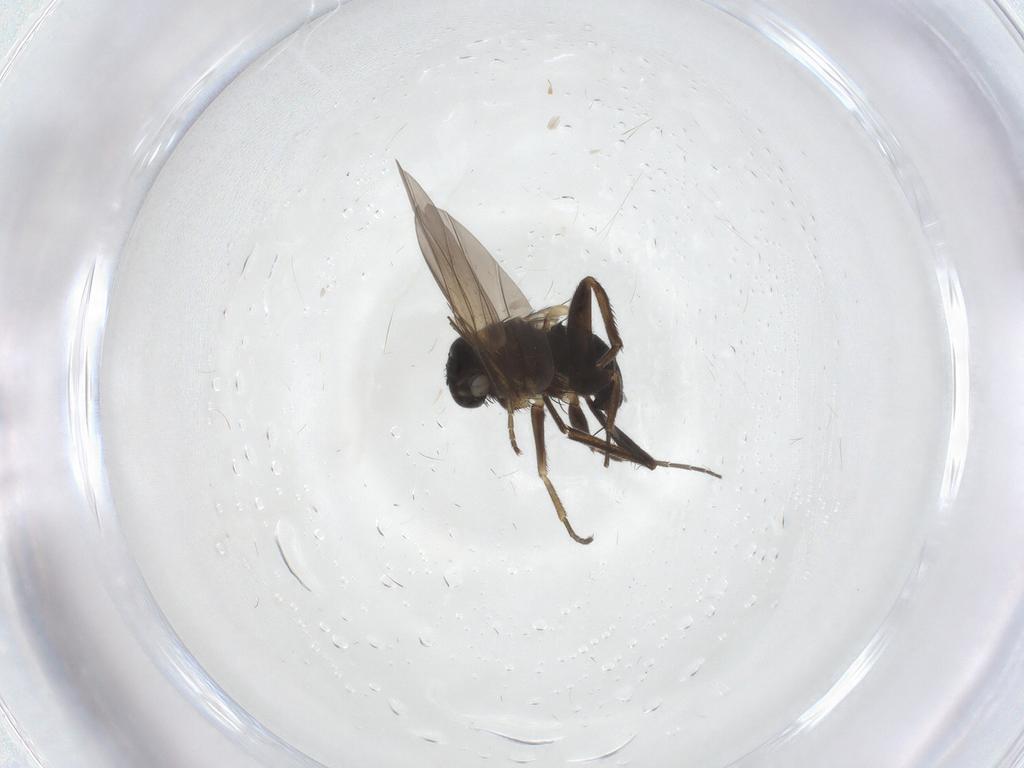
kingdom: Animalia
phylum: Arthropoda
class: Insecta
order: Diptera
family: Phoridae
